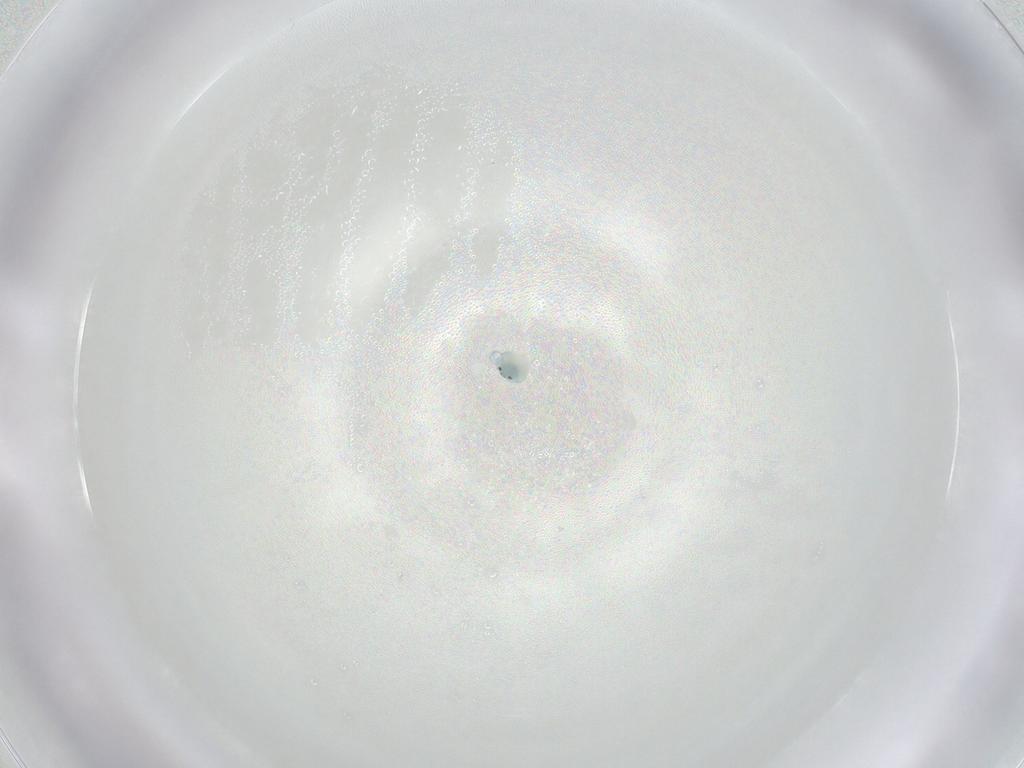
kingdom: Animalia
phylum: Arthropoda
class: Arachnida
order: Trombidiformes
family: Arrenuridae
